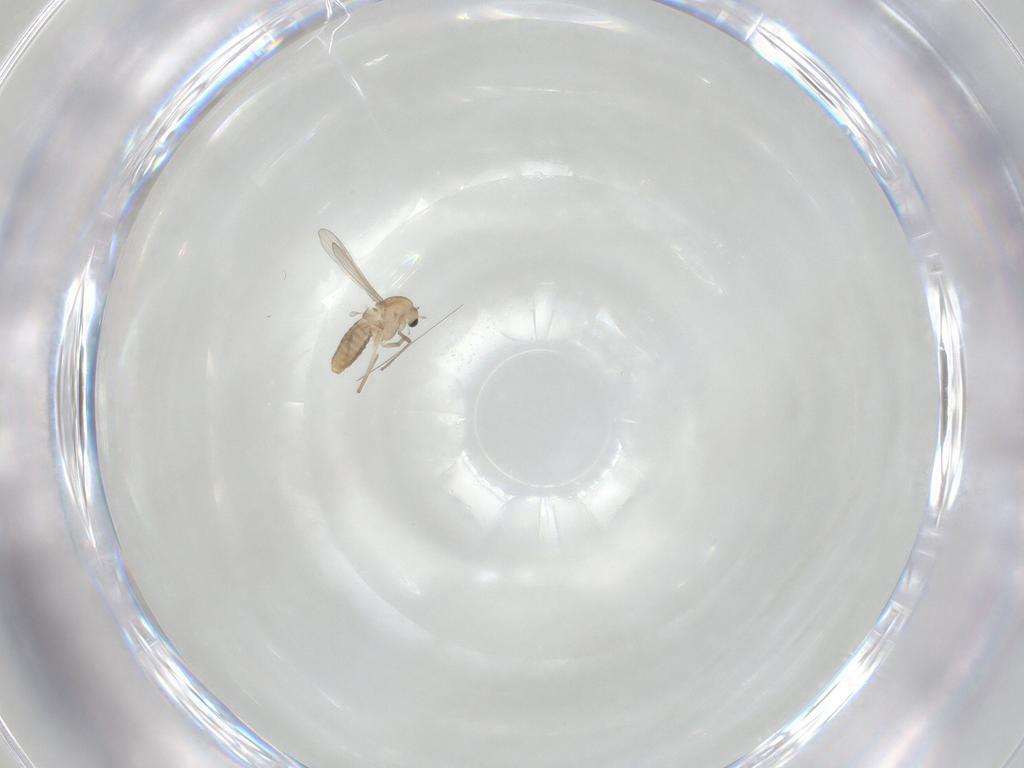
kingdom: Animalia
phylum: Arthropoda
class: Insecta
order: Diptera
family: Chironomidae
